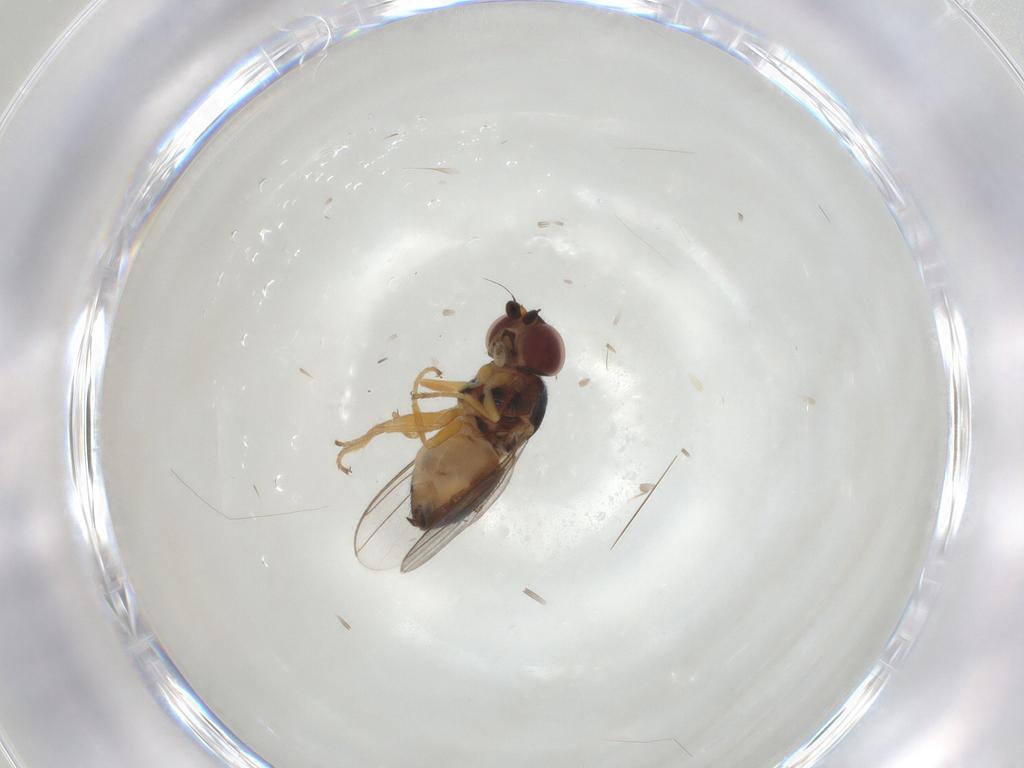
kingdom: Animalia
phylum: Arthropoda
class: Insecta
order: Diptera
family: Chloropidae
